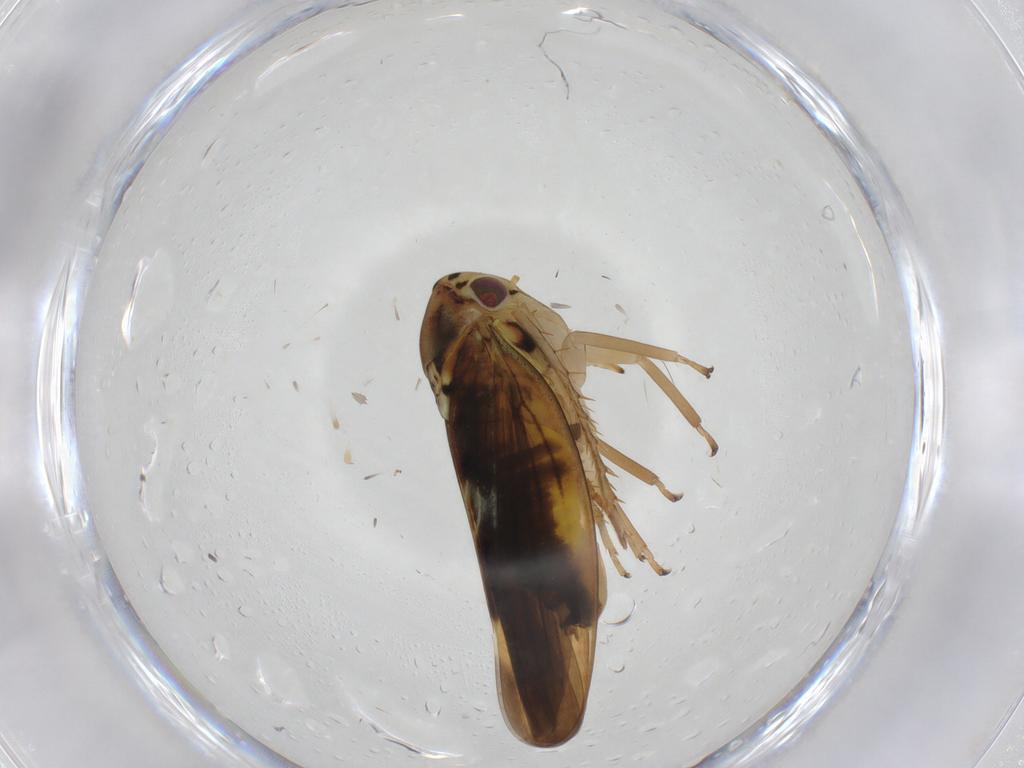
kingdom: Animalia
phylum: Arthropoda
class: Insecta
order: Hemiptera
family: Cicadellidae
